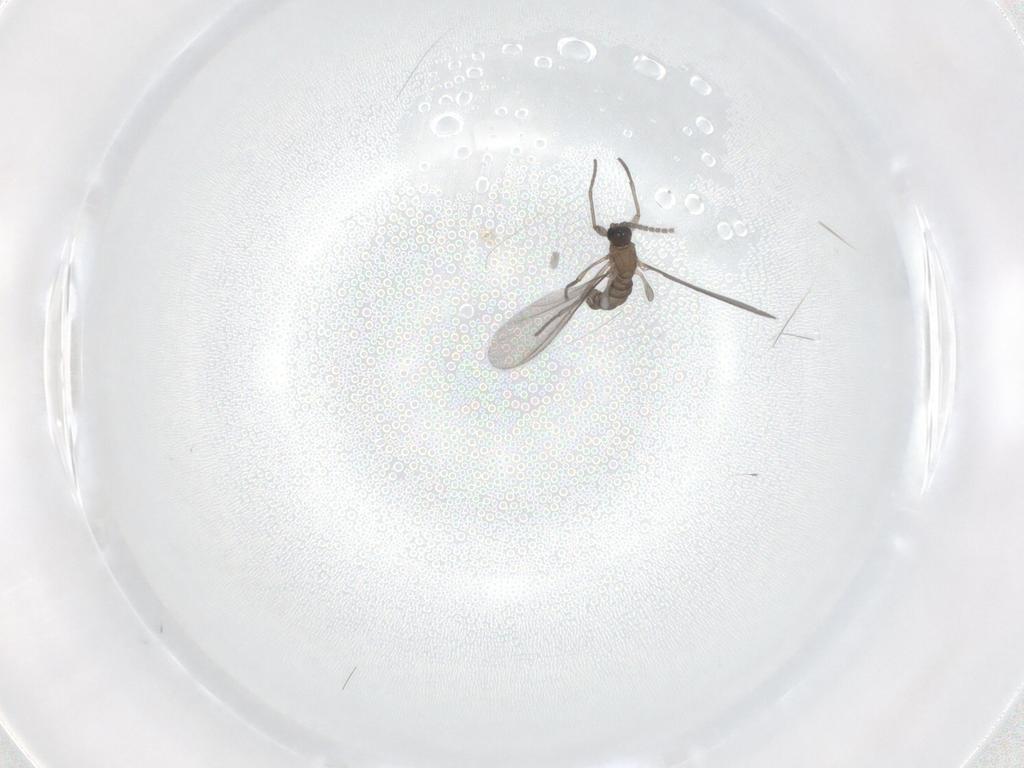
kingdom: Animalia
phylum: Arthropoda
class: Insecta
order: Diptera
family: Sciaridae
